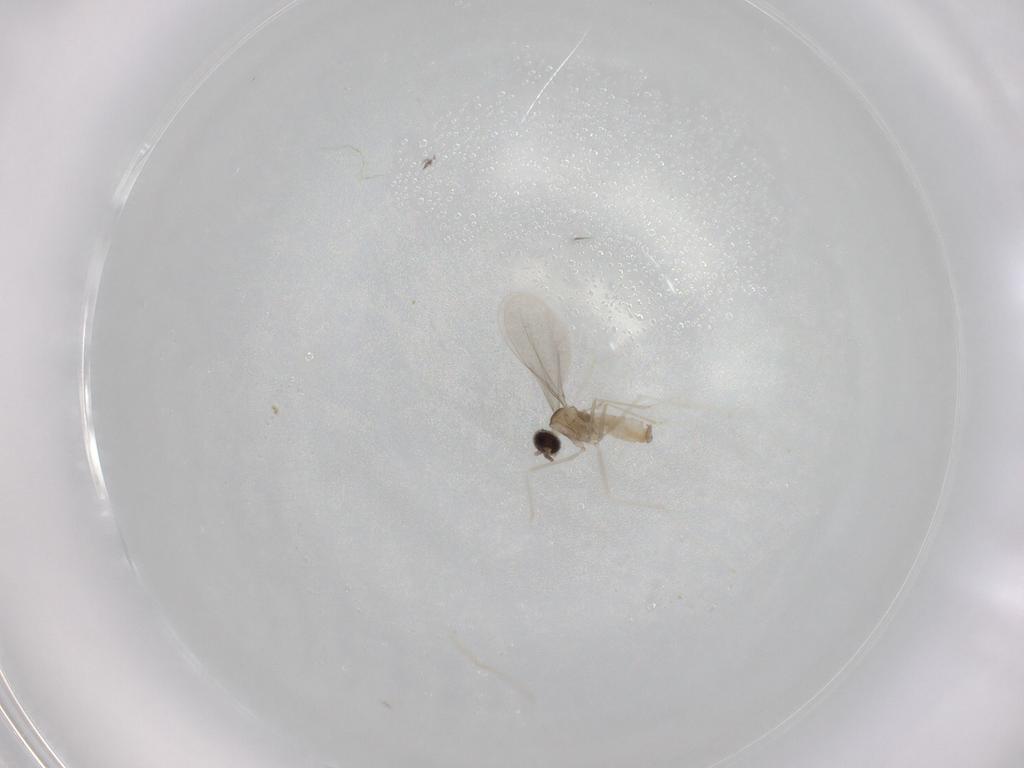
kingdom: Animalia
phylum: Arthropoda
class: Insecta
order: Diptera
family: Cecidomyiidae
